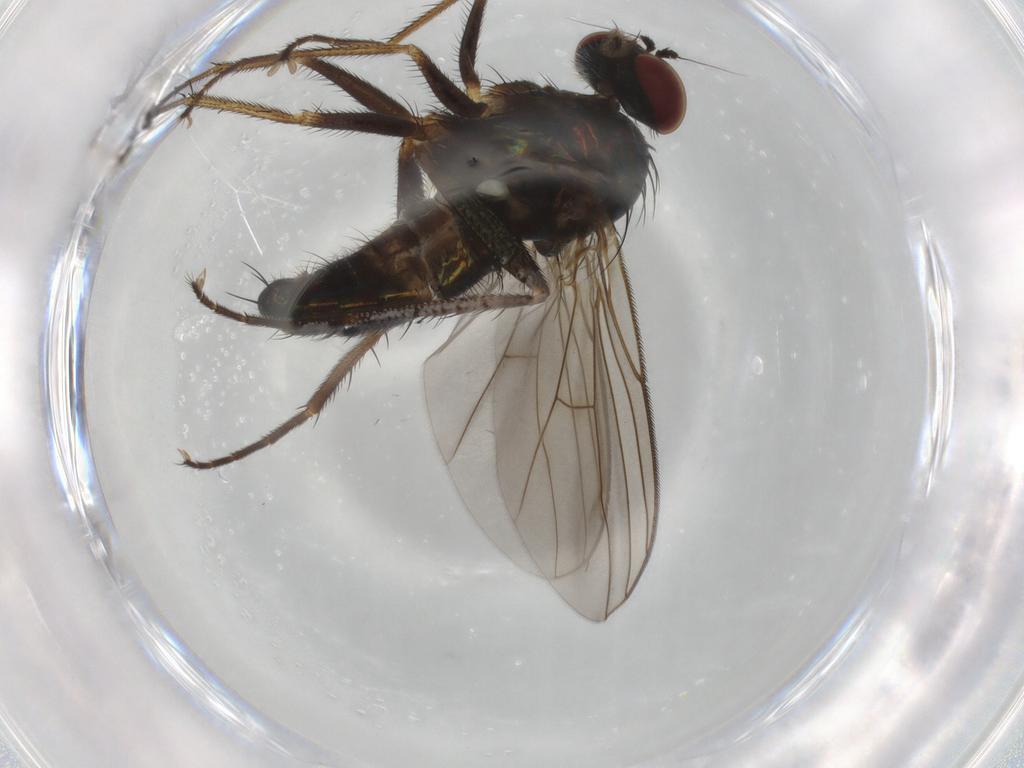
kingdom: Animalia
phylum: Arthropoda
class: Insecta
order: Diptera
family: Dolichopodidae
